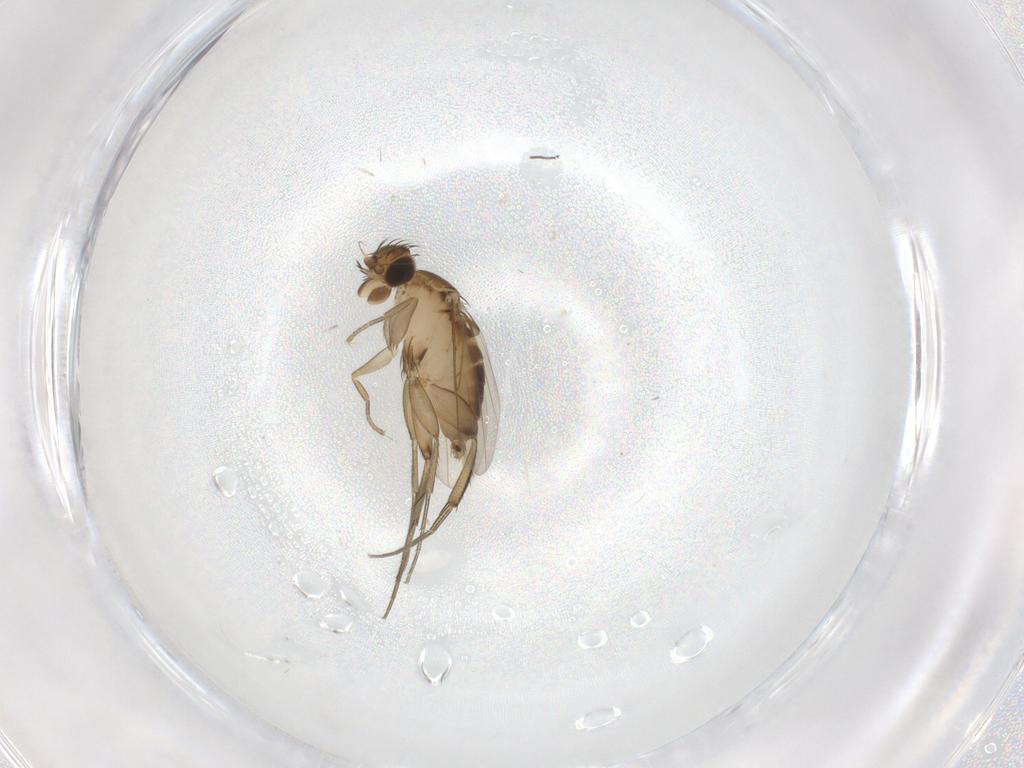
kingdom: Animalia
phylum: Arthropoda
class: Insecta
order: Diptera
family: Phoridae
